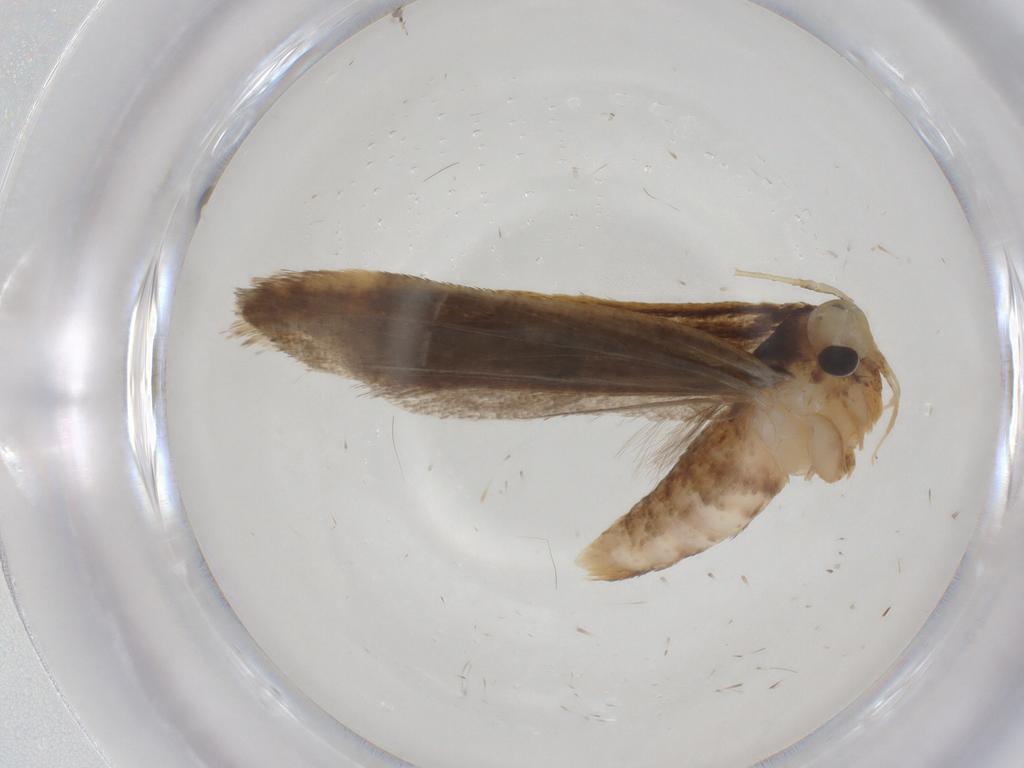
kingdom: Animalia
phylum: Arthropoda
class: Insecta
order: Lepidoptera
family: Gelechiidae
